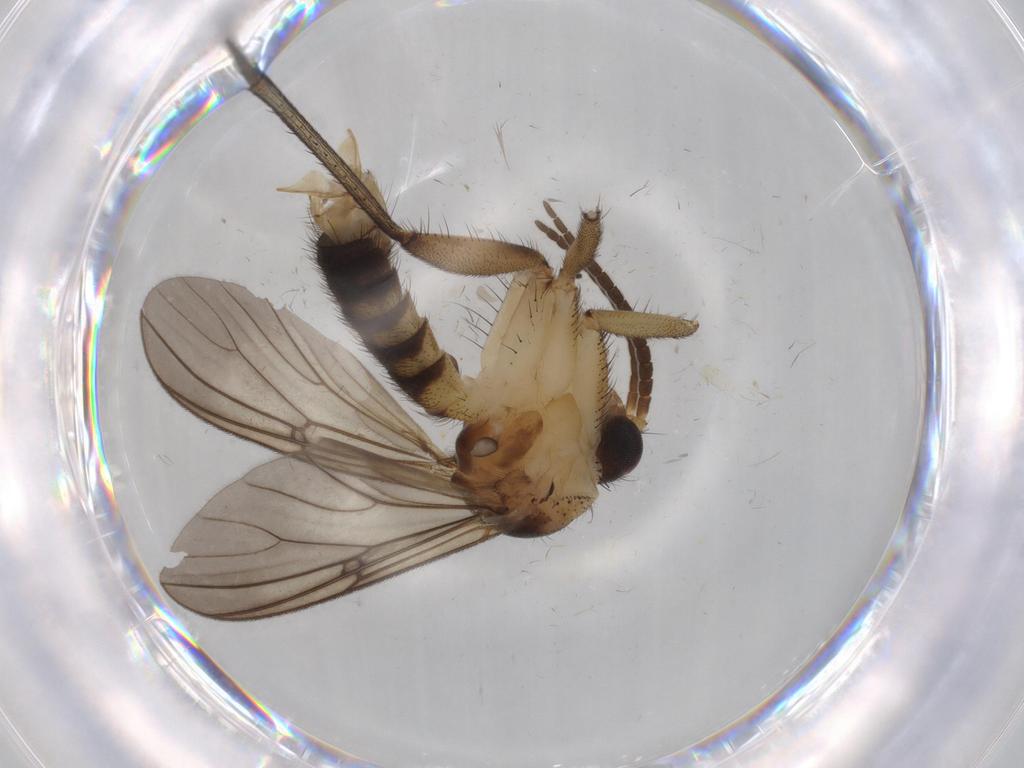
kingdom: Animalia
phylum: Arthropoda
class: Insecta
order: Diptera
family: Mycetophilidae
